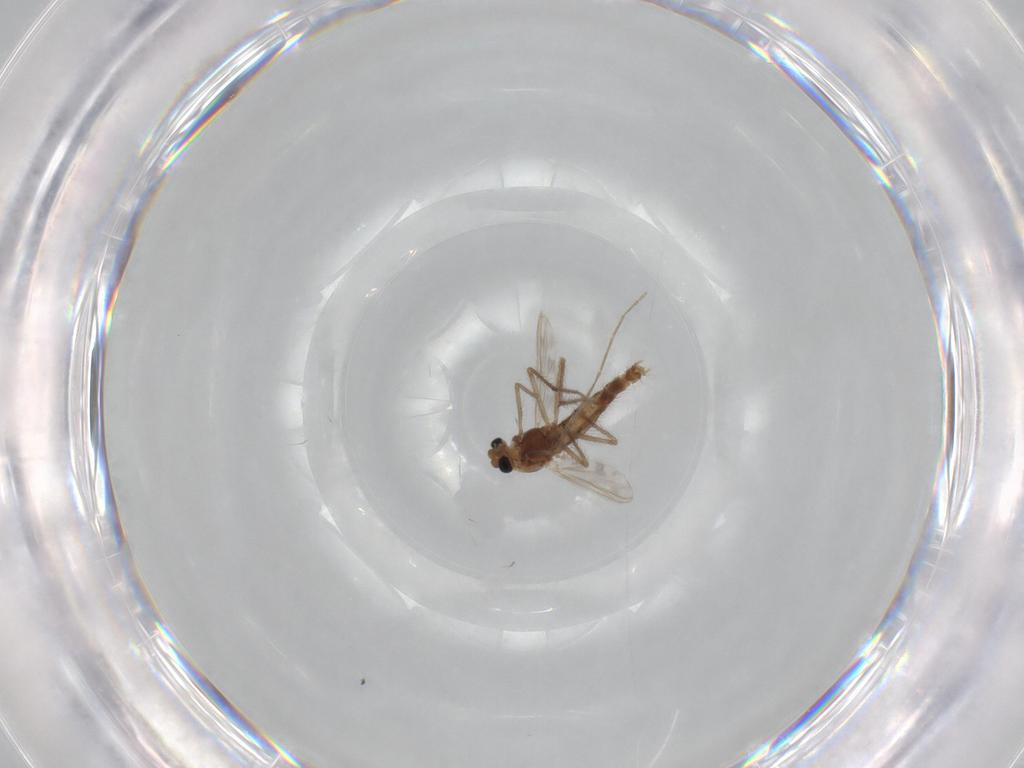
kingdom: Animalia
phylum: Arthropoda
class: Insecta
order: Diptera
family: Chironomidae
